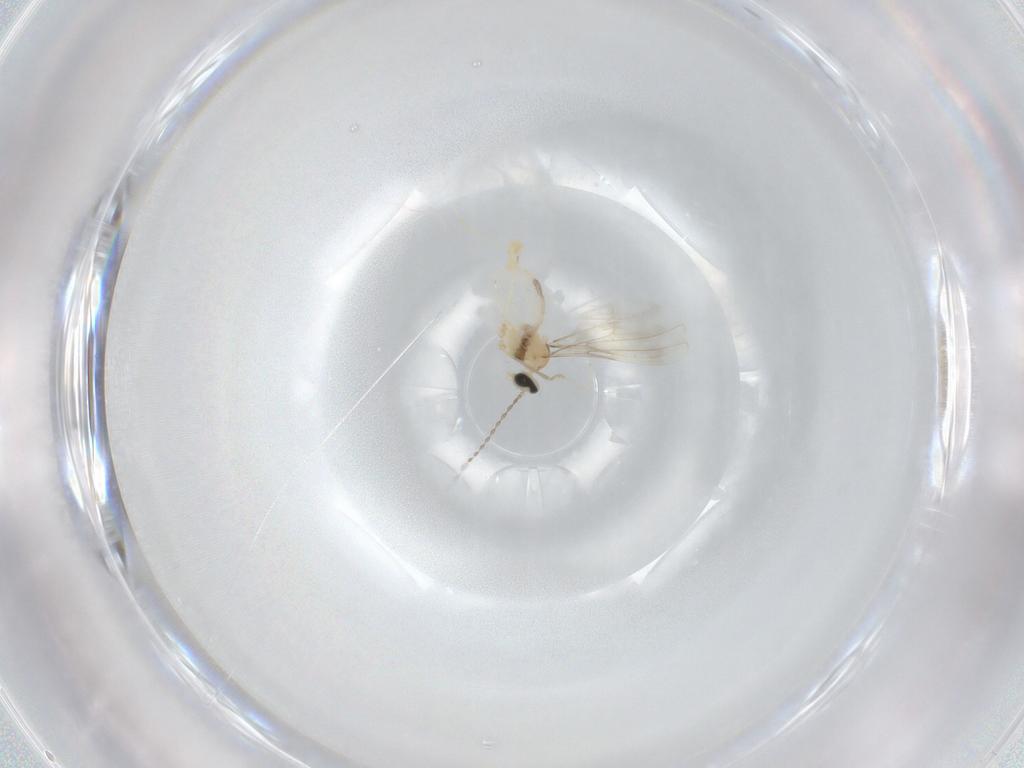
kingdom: Animalia
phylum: Arthropoda
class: Insecta
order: Diptera
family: Cecidomyiidae
